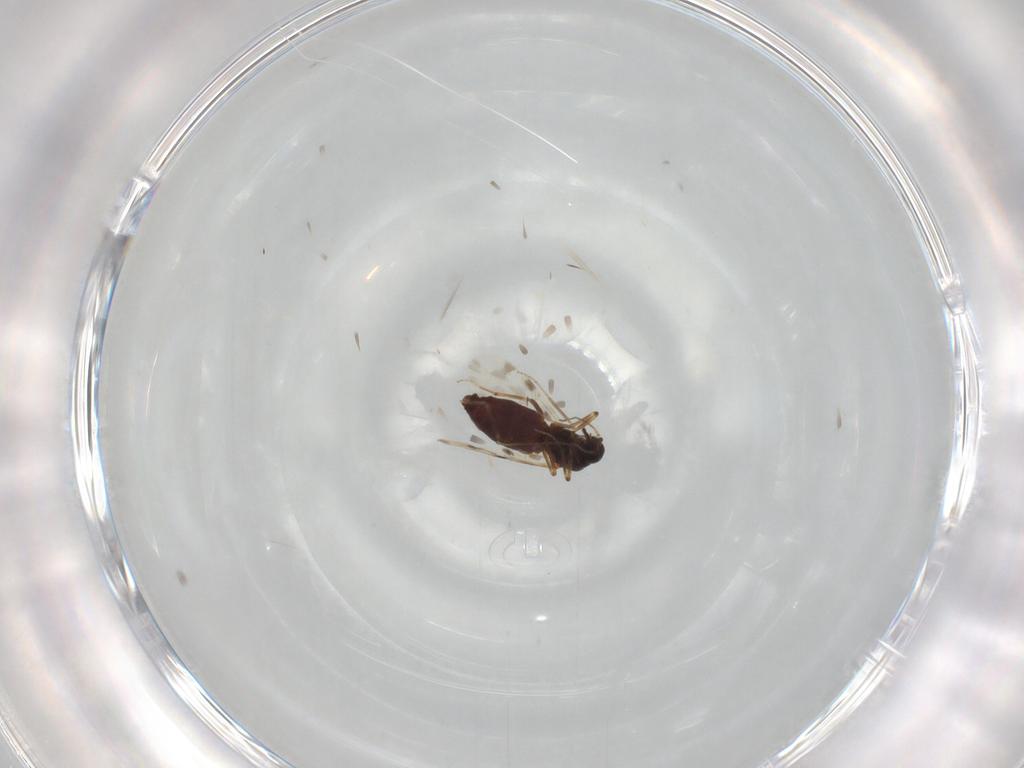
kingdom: Animalia
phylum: Arthropoda
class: Insecta
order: Diptera
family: Ceratopogonidae
